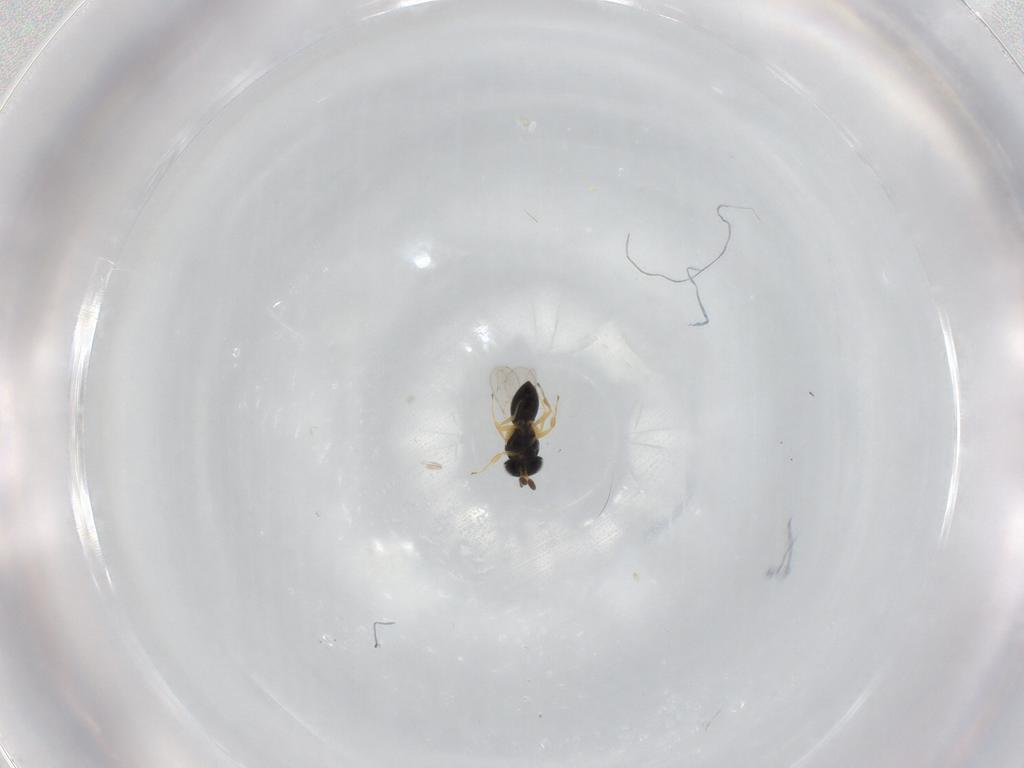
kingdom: Animalia
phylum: Arthropoda
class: Insecta
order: Hymenoptera
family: Scelionidae
